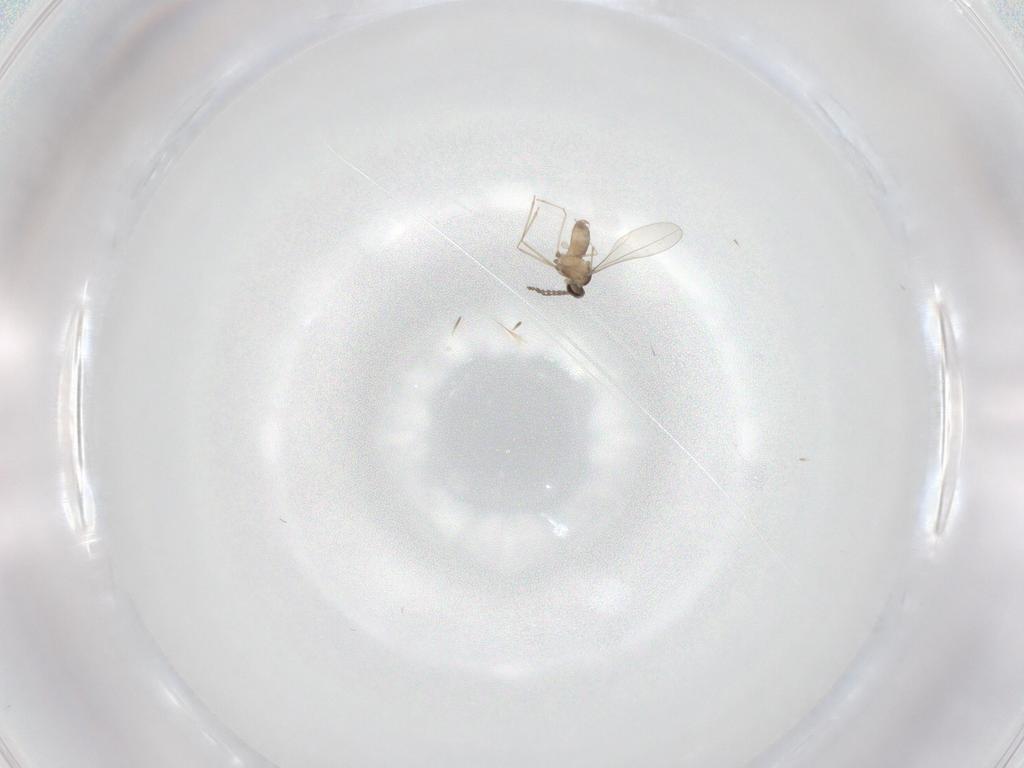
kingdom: Animalia
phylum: Arthropoda
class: Insecta
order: Diptera
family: Cecidomyiidae
